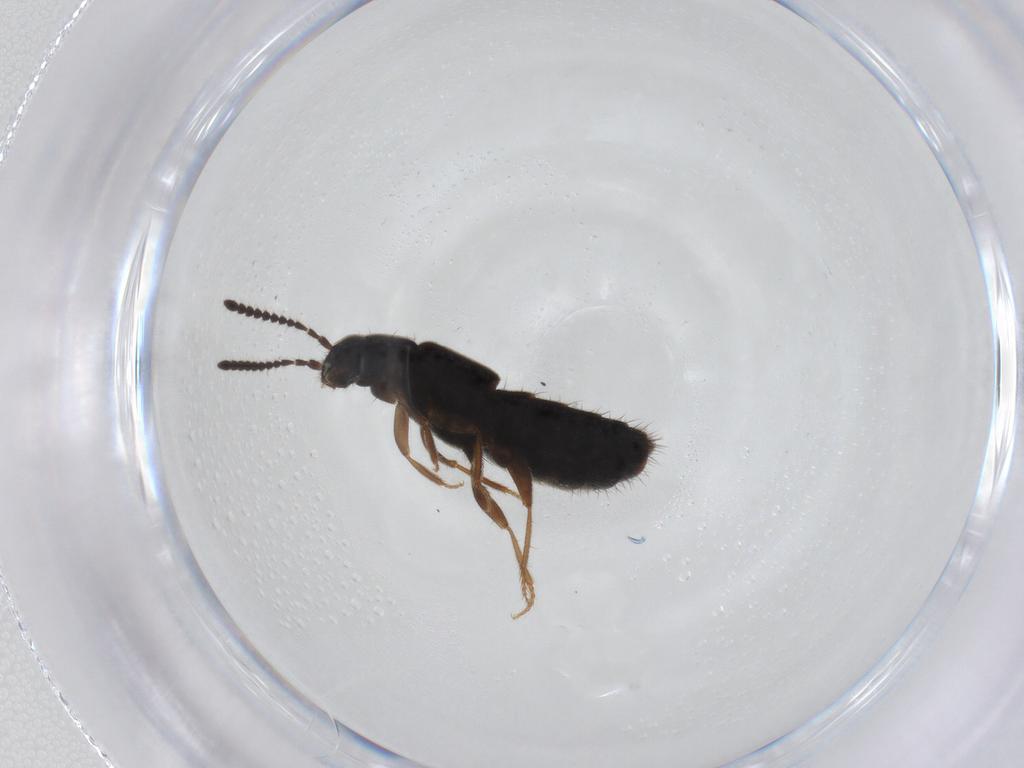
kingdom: Animalia
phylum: Arthropoda
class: Insecta
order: Coleoptera
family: Staphylinidae
